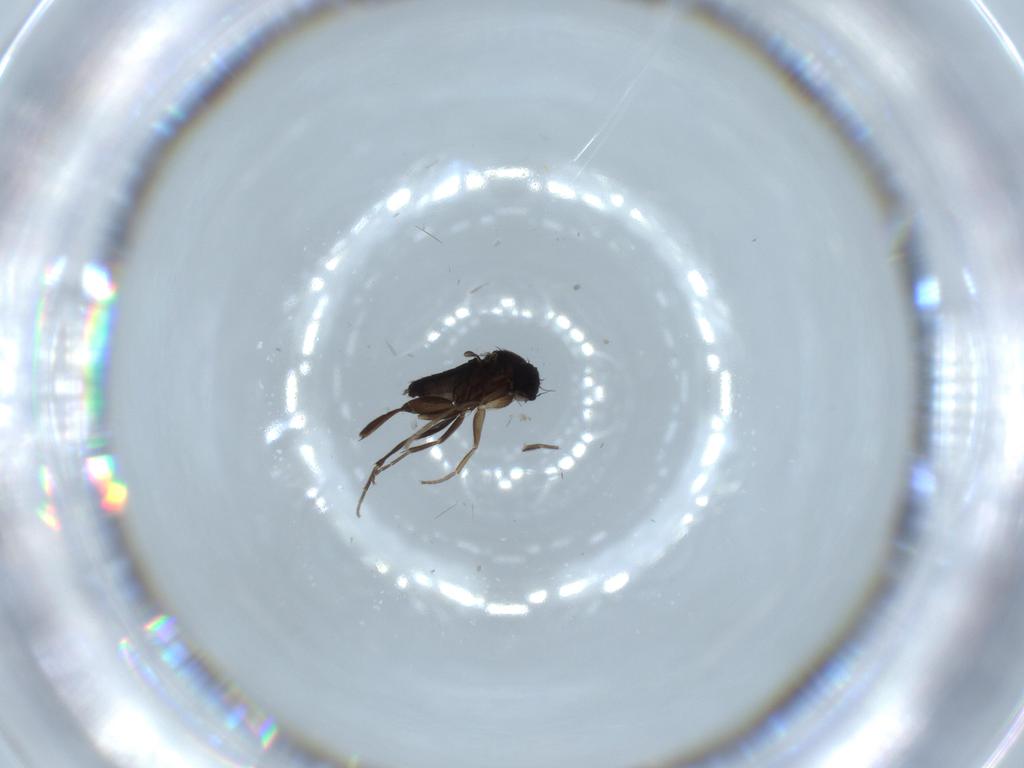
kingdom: Animalia
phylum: Arthropoda
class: Insecta
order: Diptera
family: Phoridae
